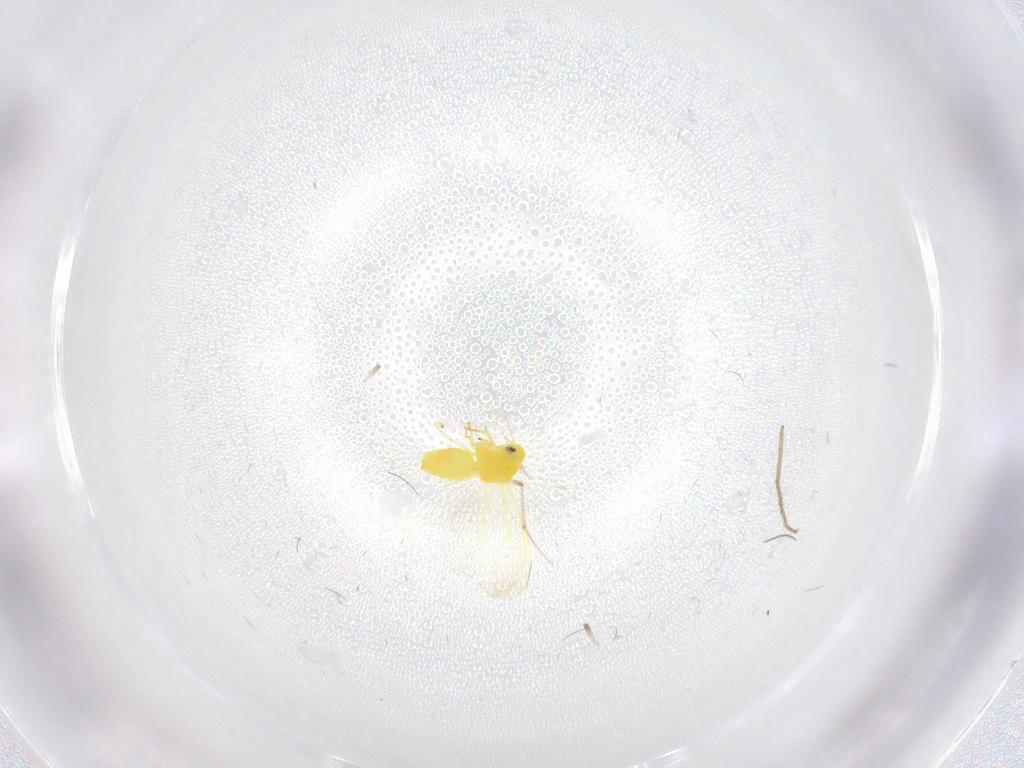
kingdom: Animalia
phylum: Arthropoda
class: Insecta
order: Hemiptera
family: Aleyrodidae
